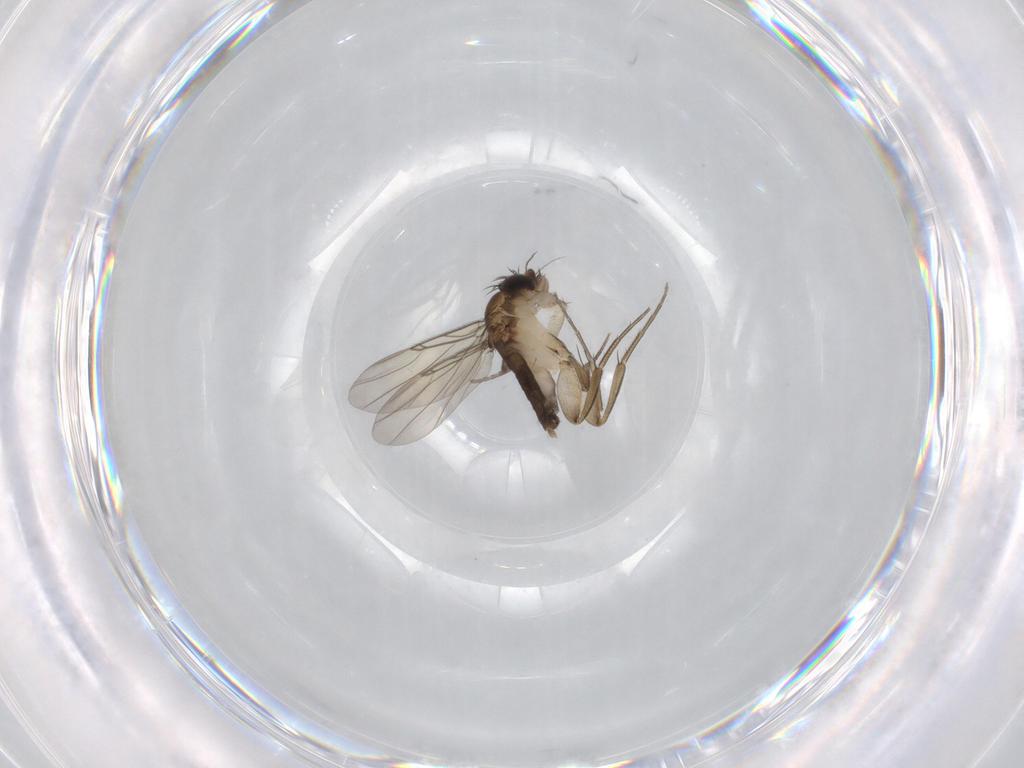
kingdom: Animalia
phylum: Arthropoda
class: Insecta
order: Diptera
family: Phoridae
